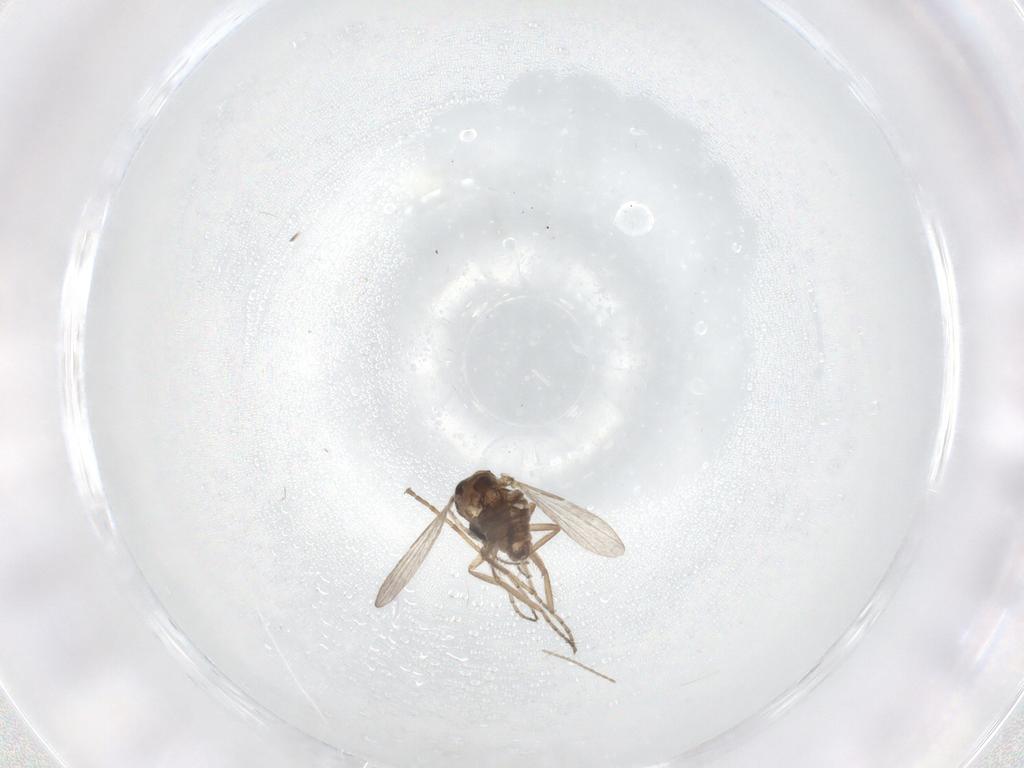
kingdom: Animalia
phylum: Arthropoda
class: Insecta
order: Diptera
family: Ceratopogonidae
